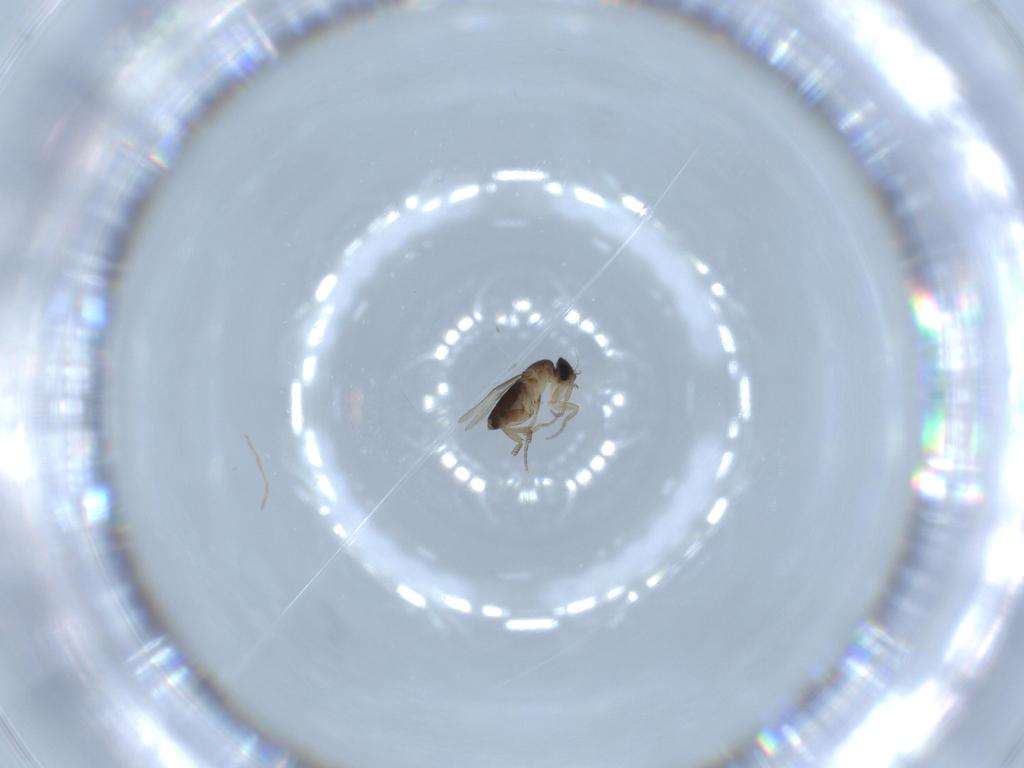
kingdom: Animalia
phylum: Arthropoda
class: Insecta
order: Diptera
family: Phoridae
